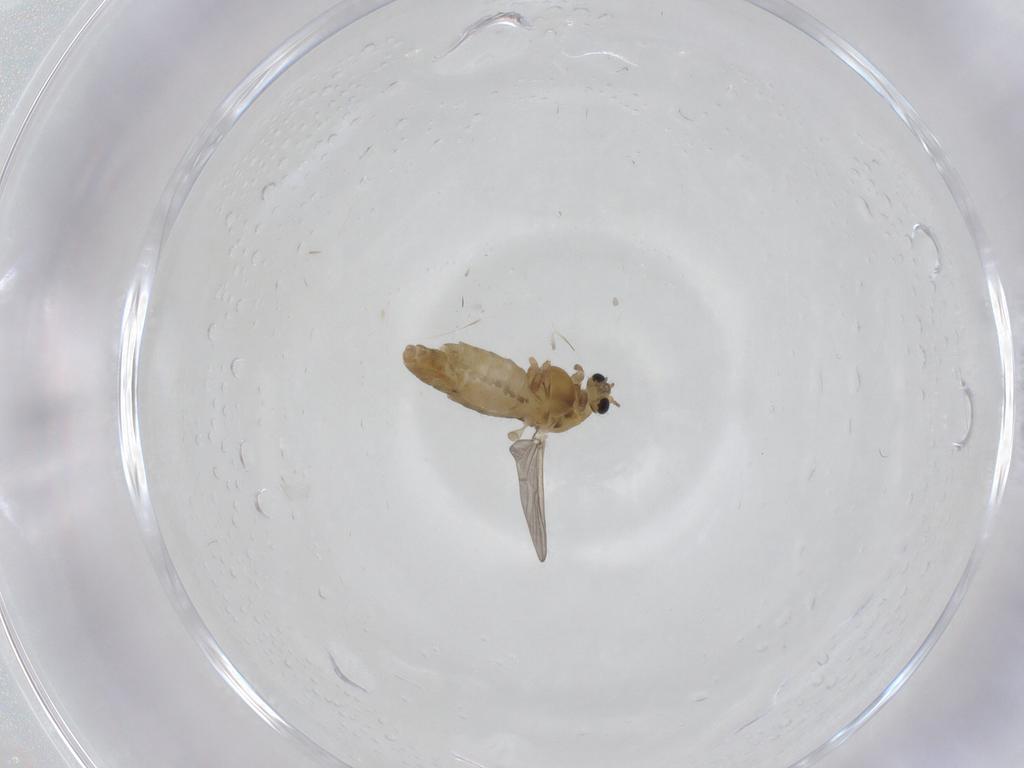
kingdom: Animalia
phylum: Arthropoda
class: Insecta
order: Diptera
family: Chironomidae
